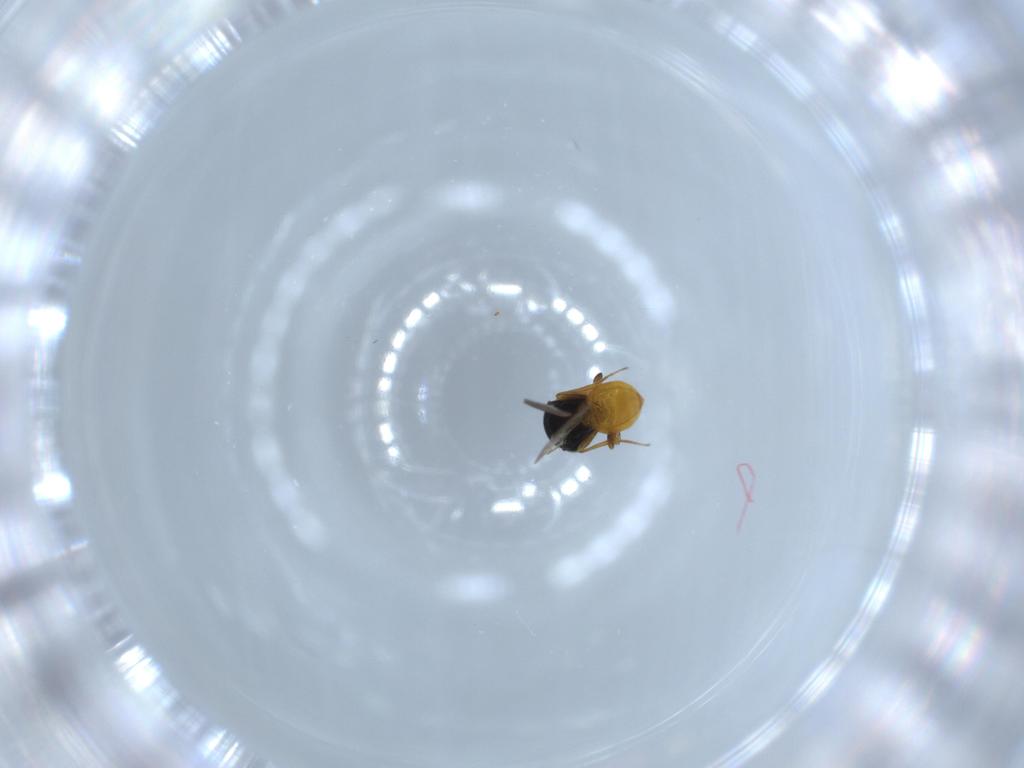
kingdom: Animalia
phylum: Arthropoda
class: Insecta
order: Hymenoptera
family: Scelionidae
